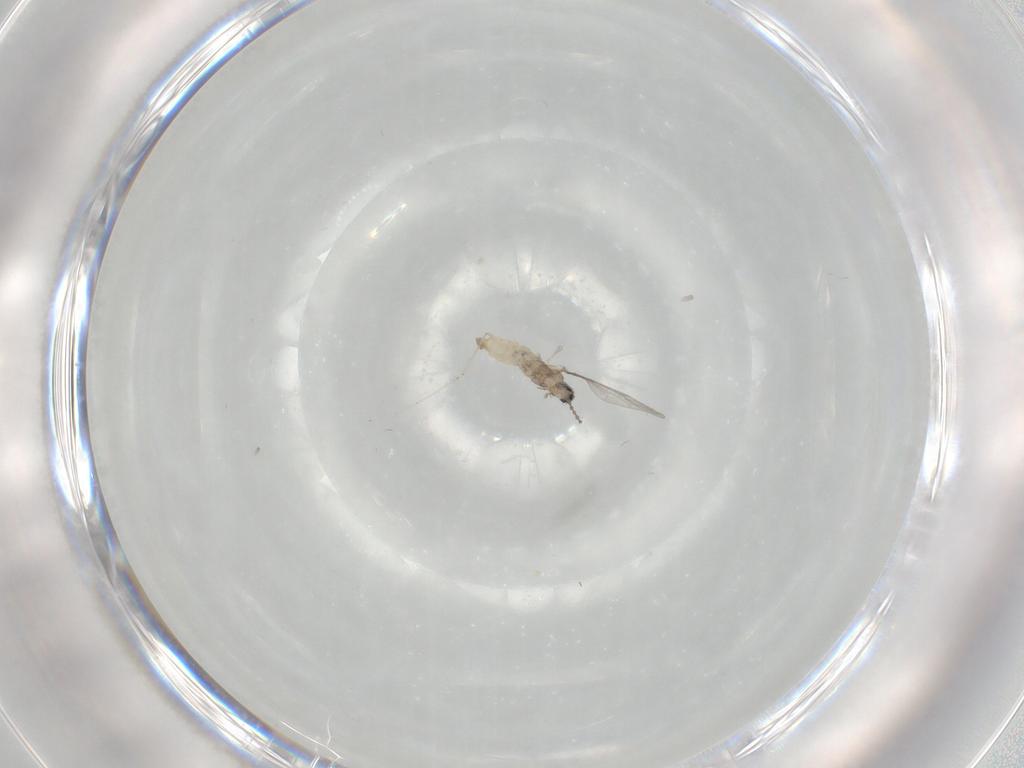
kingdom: Animalia
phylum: Arthropoda
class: Insecta
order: Diptera
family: Cecidomyiidae
